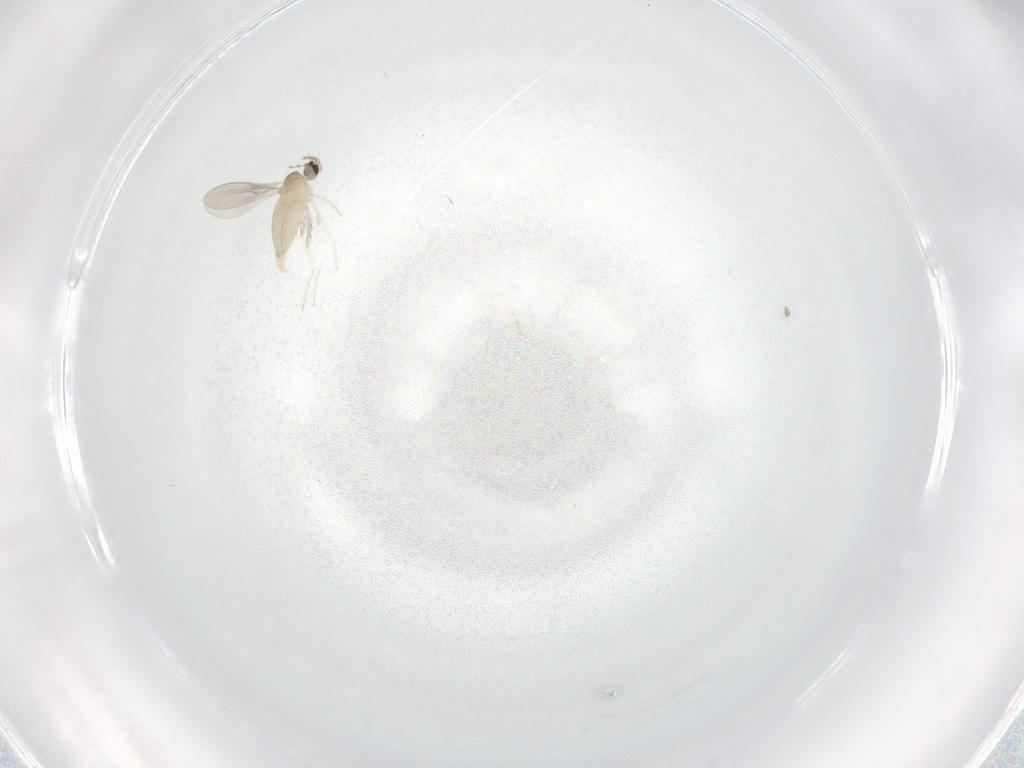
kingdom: Animalia
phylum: Arthropoda
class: Insecta
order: Diptera
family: Cecidomyiidae
